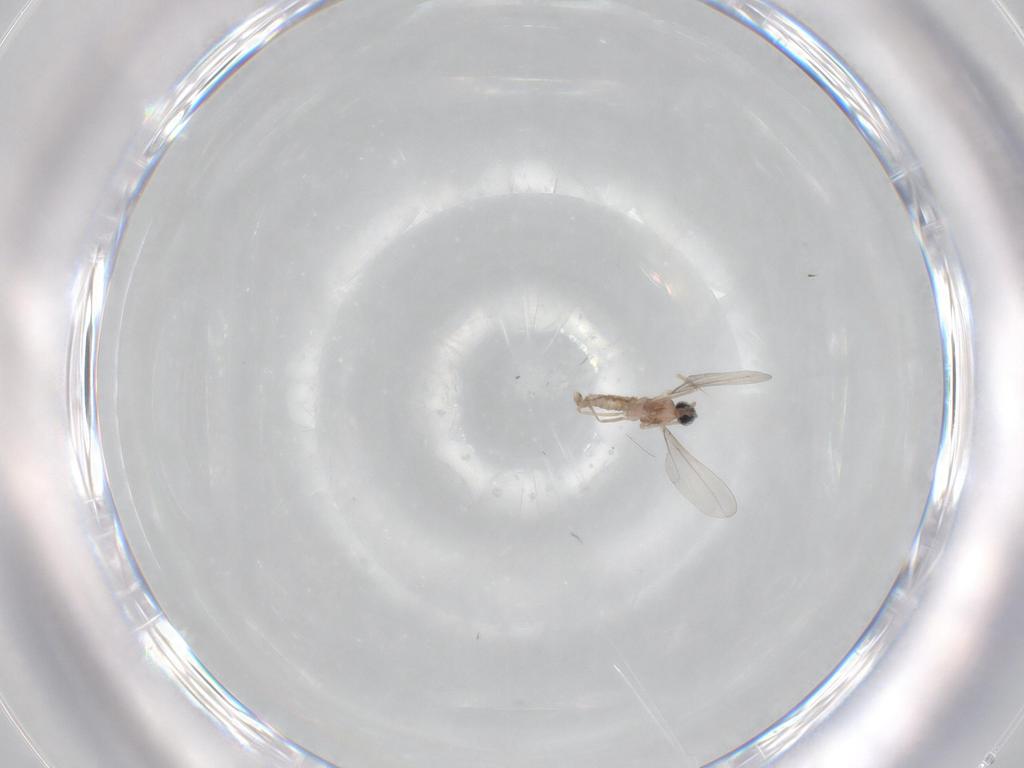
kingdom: Animalia
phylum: Arthropoda
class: Insecta
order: Diptera
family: Cecidomyiidae
